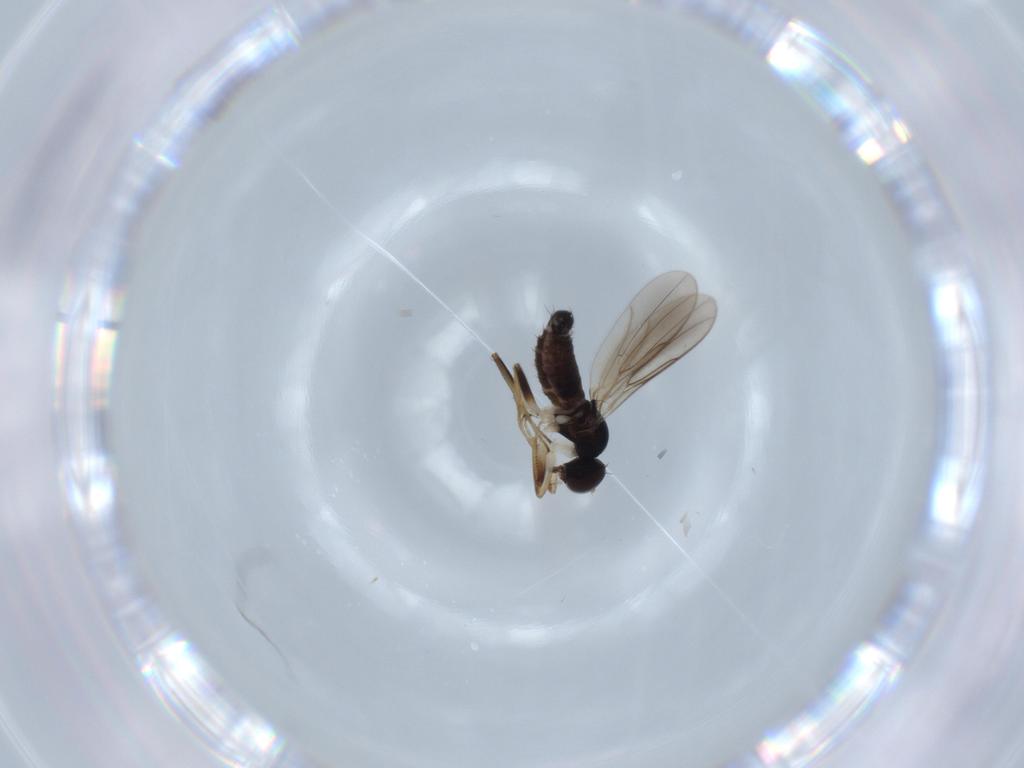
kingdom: Animalia
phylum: Arthropoda
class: Insecta
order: Diptera
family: Hybotidae
